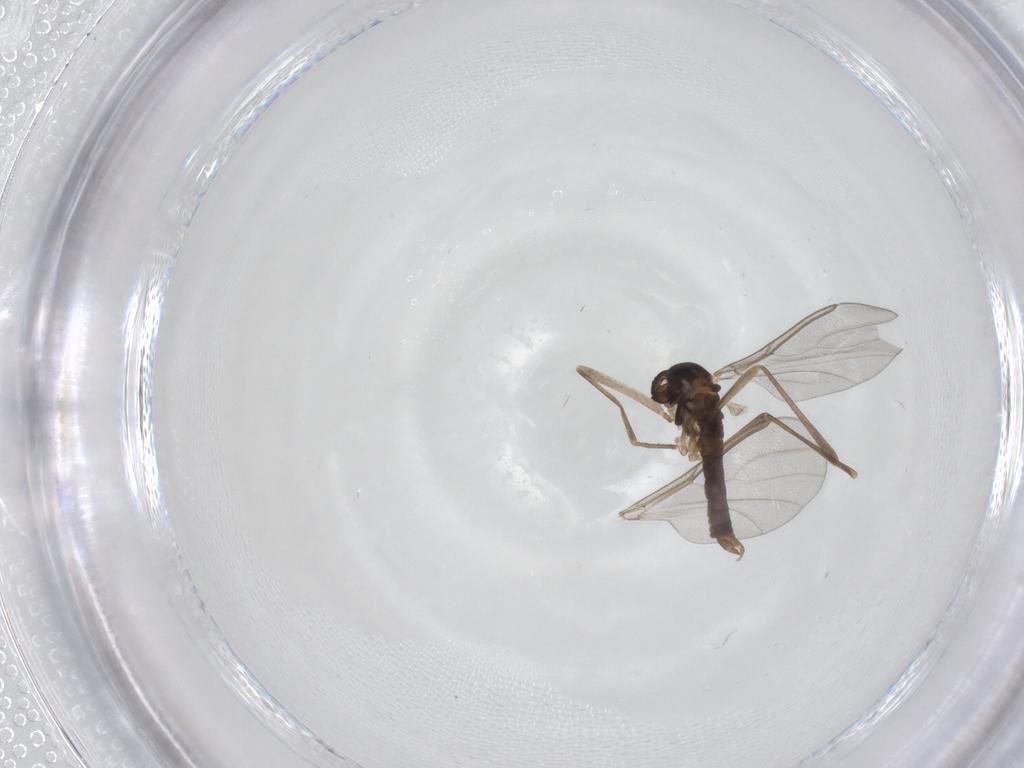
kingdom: Animalia
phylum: Arthropoda
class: Insecta
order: Diptera
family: Cecidomyiidae
